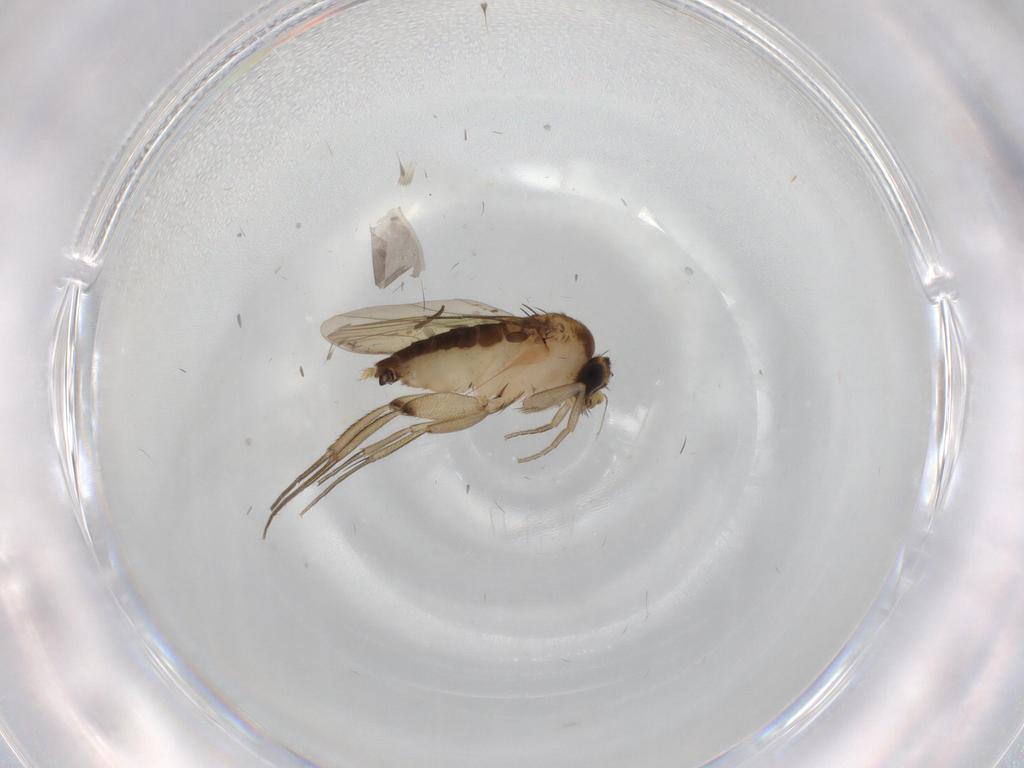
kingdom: Animalia
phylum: Arthropoda
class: Insecta
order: Diptera
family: Phoridae
